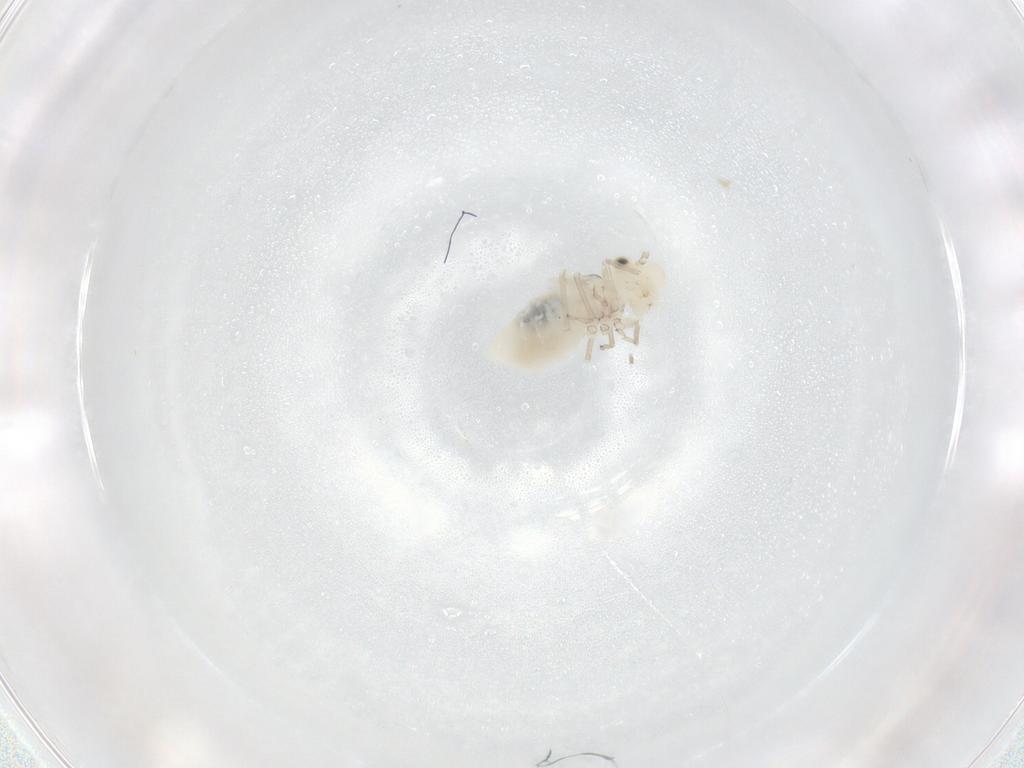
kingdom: Animalia
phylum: Arthropoda
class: Insecta
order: Psocodea
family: Caeciliusidae
